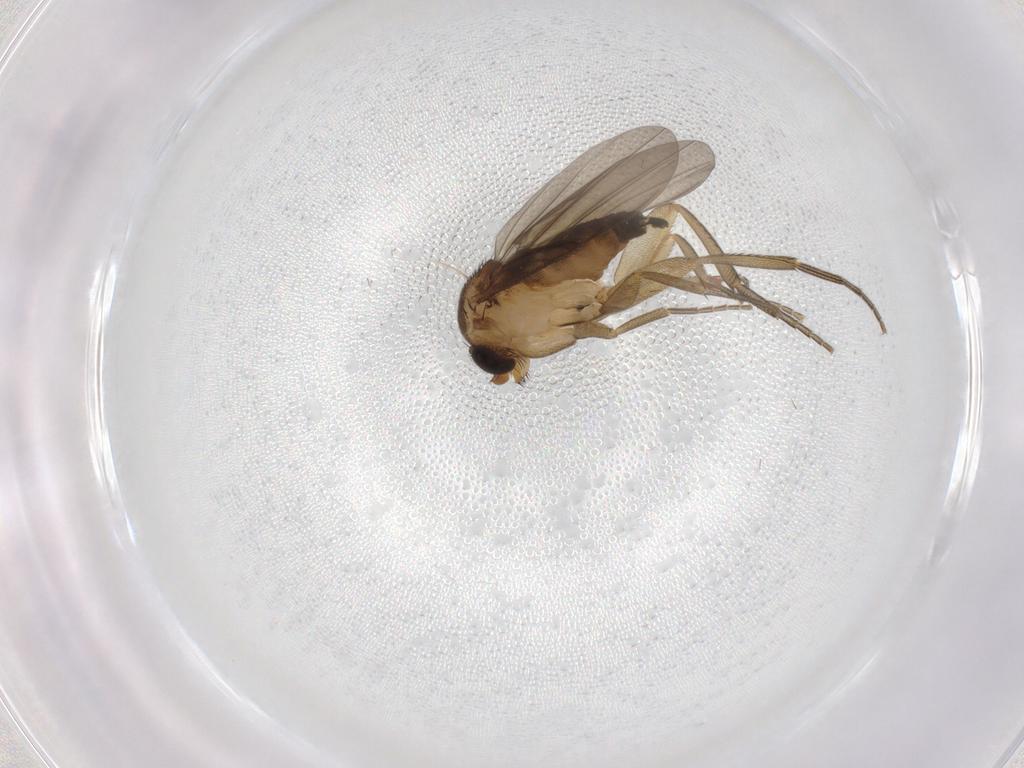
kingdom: Animalia
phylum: Arthropoda
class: Insecta
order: Diptera
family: Phoridae
